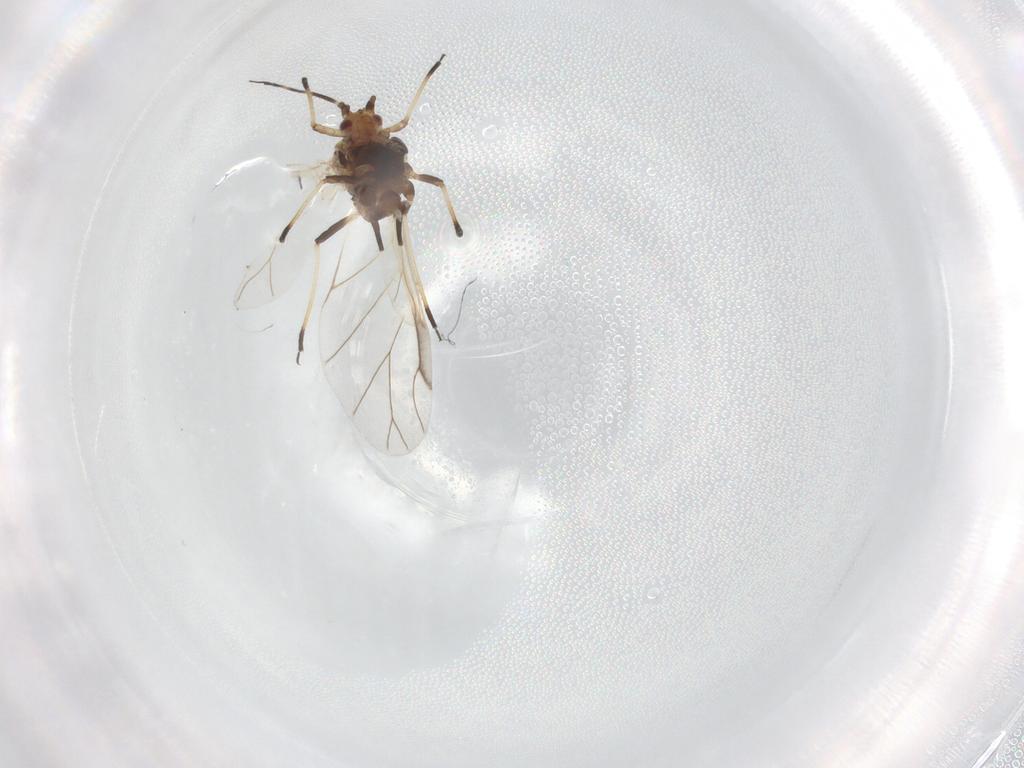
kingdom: Animalia
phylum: Arthropoda
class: Insecta
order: Hemiptera
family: Aphididae
